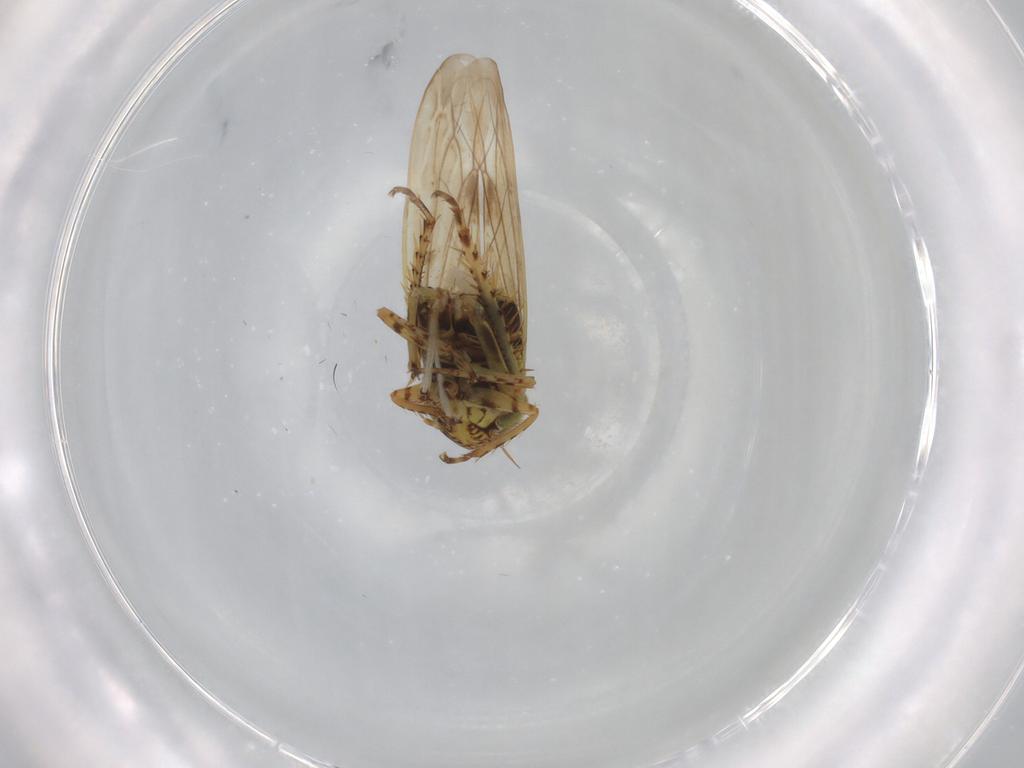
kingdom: Animalia
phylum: Arthropoda
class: Insecta
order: Hemiptera
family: Cicadellidae
